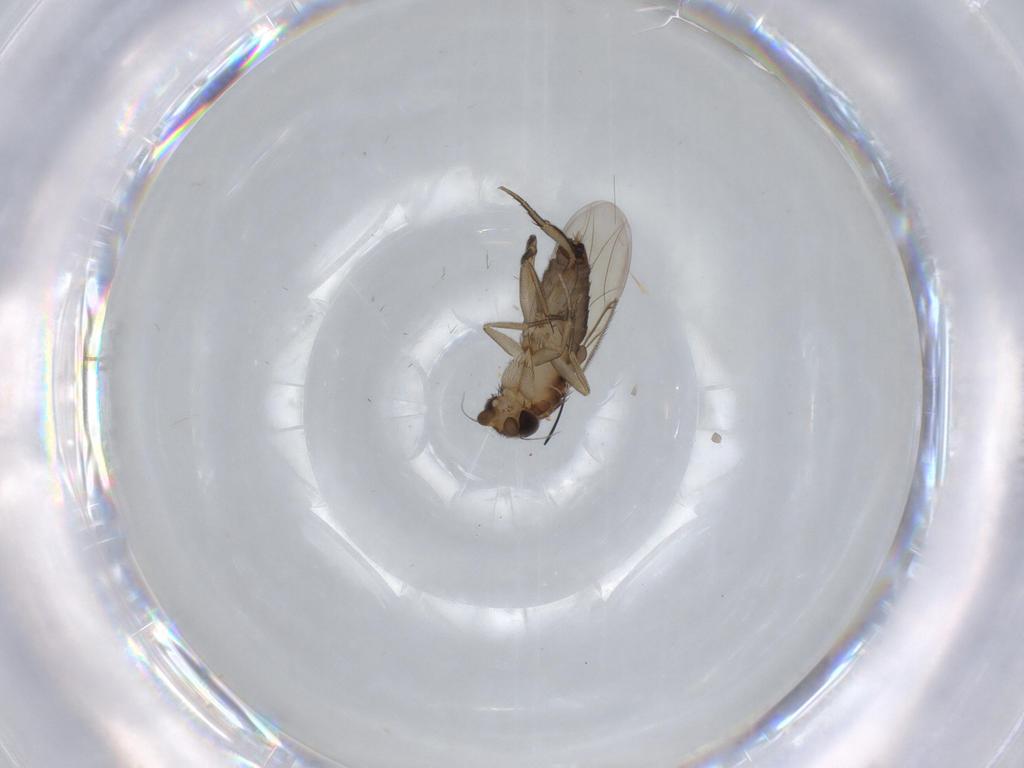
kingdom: Animalia
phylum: Arthropoda
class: Insecta
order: Diptera
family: Phoridae
